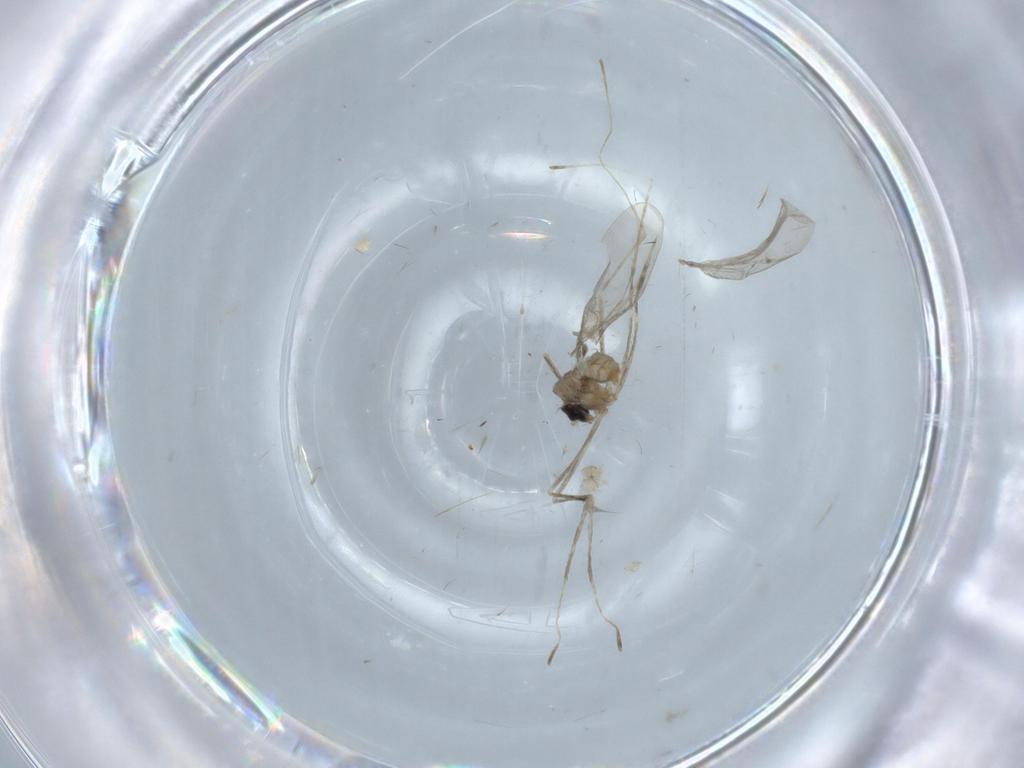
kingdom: Animalia
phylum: Arthropoda
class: Insecta
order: Diptera
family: Cecidomyiidae
